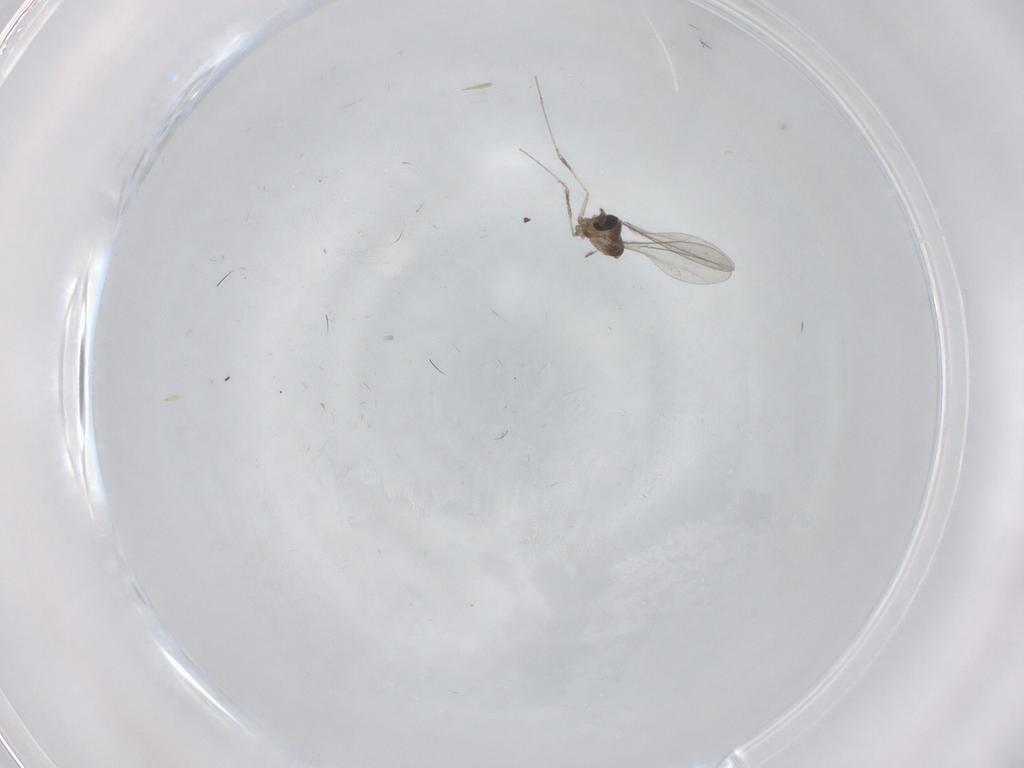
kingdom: Animalia
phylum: Arthropoda
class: Insecta
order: Diptera
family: Cecidomyiidae
